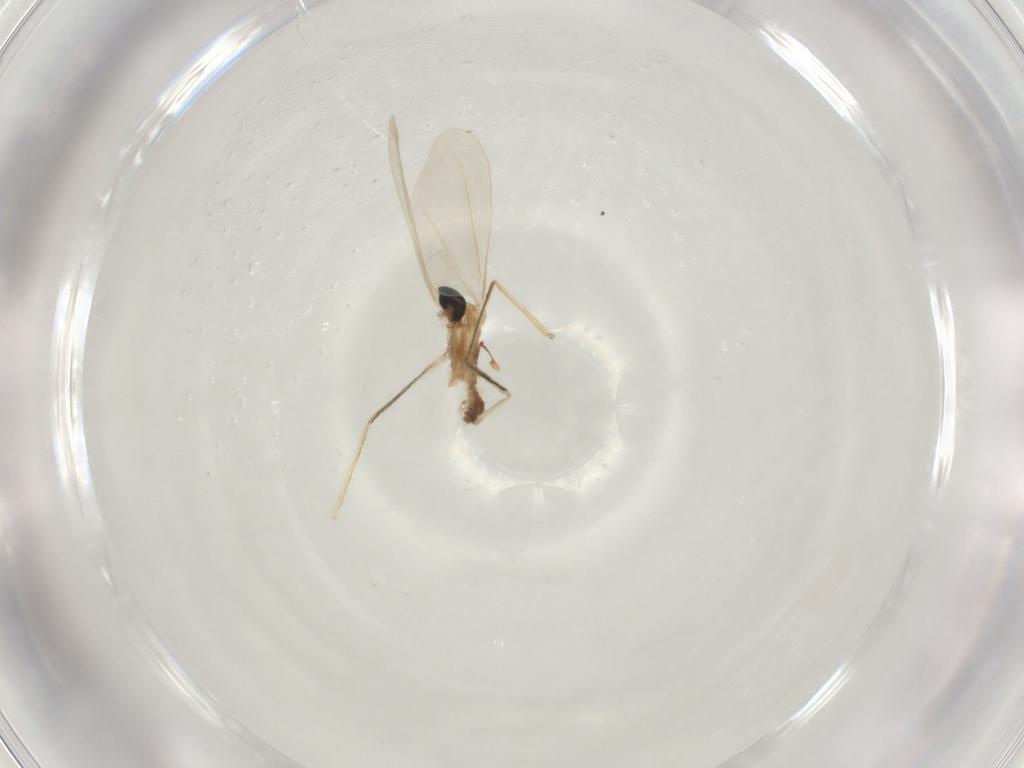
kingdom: Animalia
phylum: Arthropoda
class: Insecta
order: Diptera
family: Cecidomyiidae
